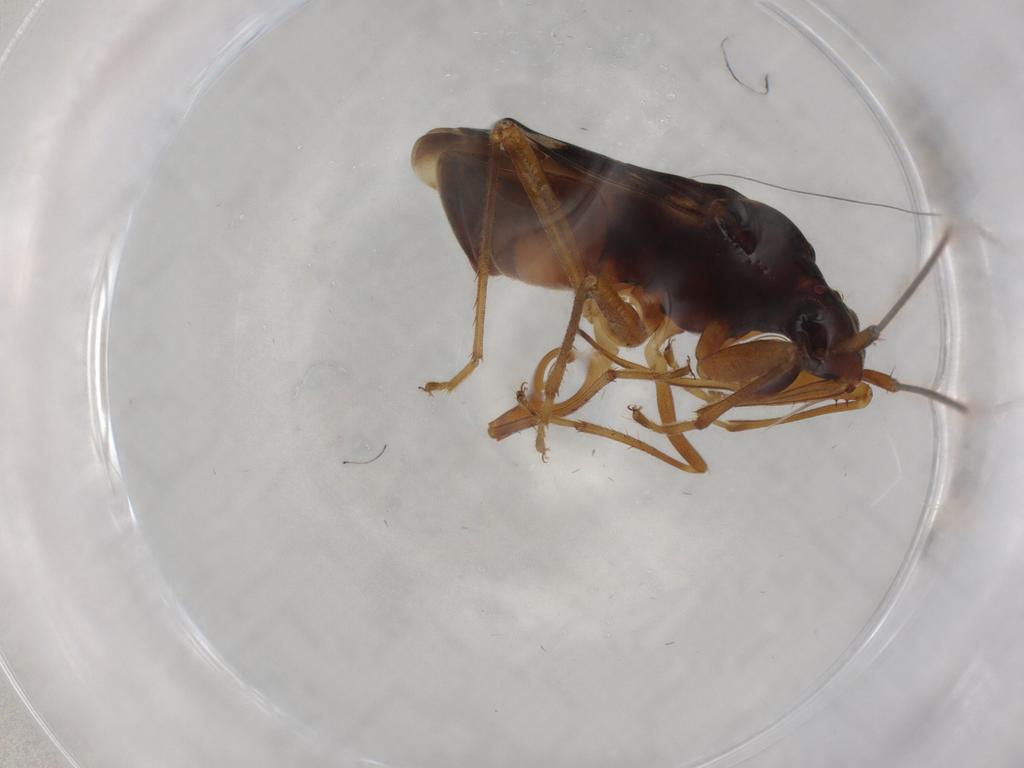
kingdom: Animalia
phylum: Arthropoda
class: Insecta
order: Hemiptera
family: Rhyparochromidae
